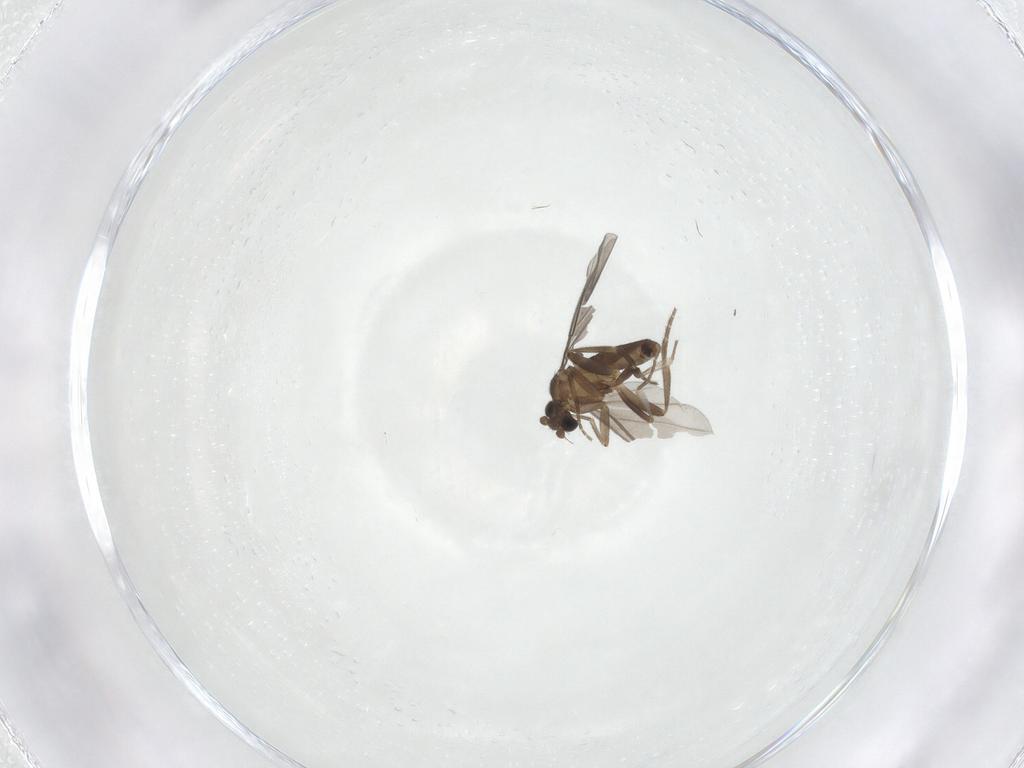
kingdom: Animalia
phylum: Arthropoda
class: Insecta
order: Diptera
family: Phoridae
